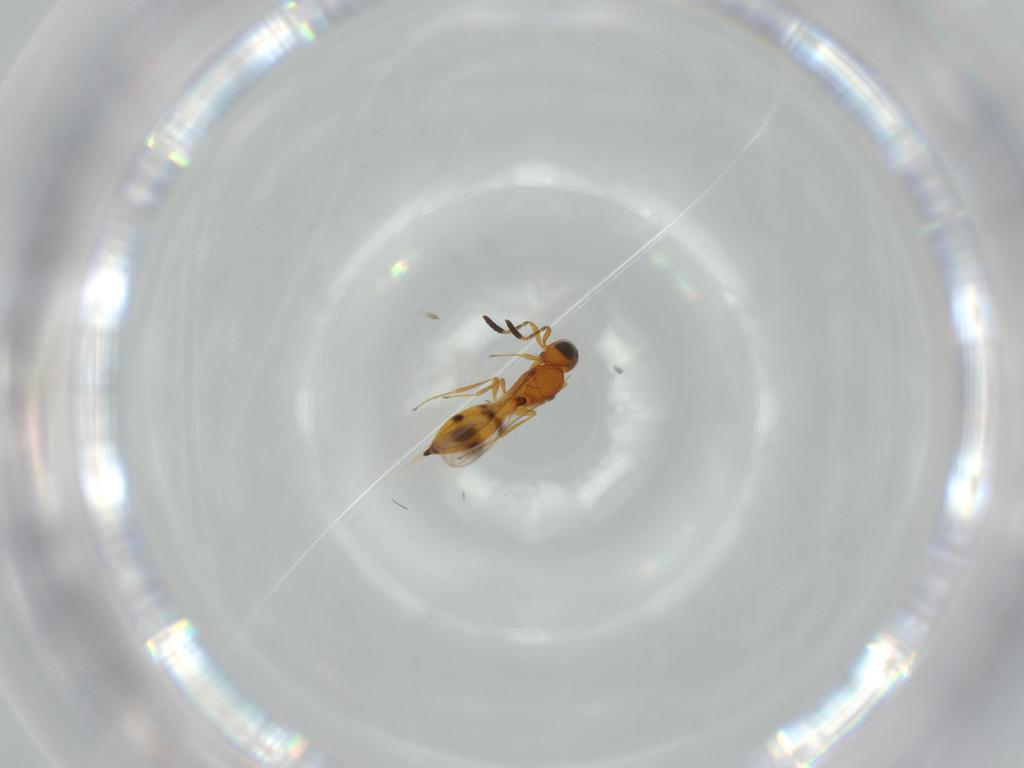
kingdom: Animalia
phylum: Arthropoda
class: Insecta
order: Hymenoptera
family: Scelionidae
